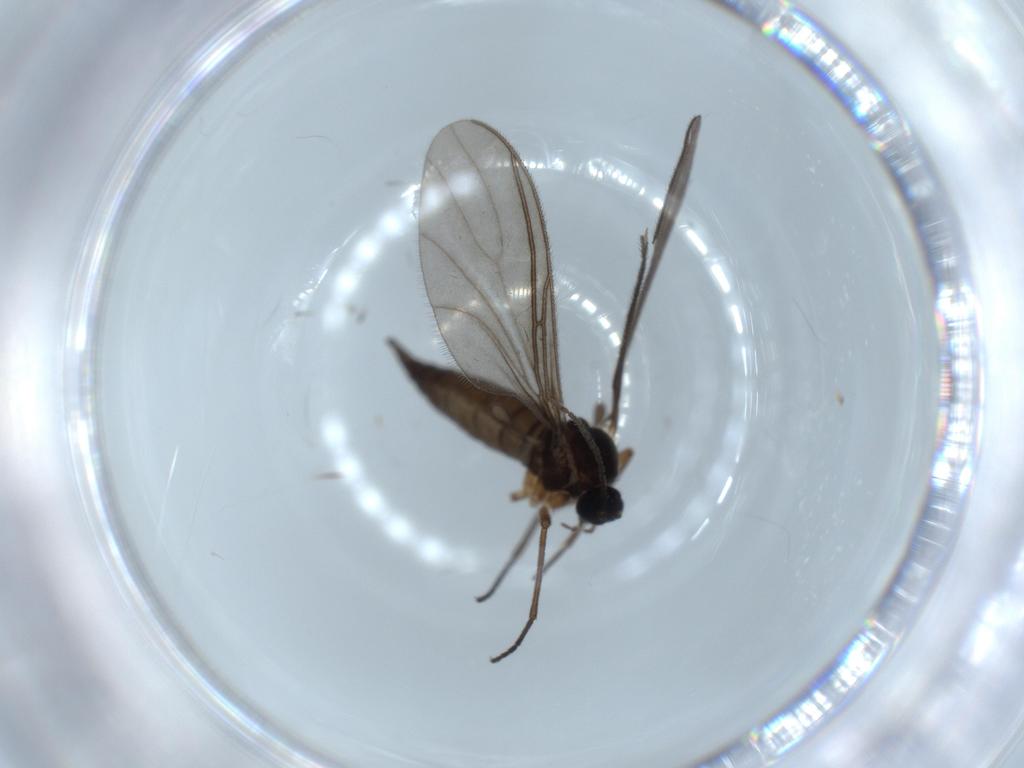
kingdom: Animalia
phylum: Arthropoda
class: Insecta
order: Diptera
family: Sciaridae
